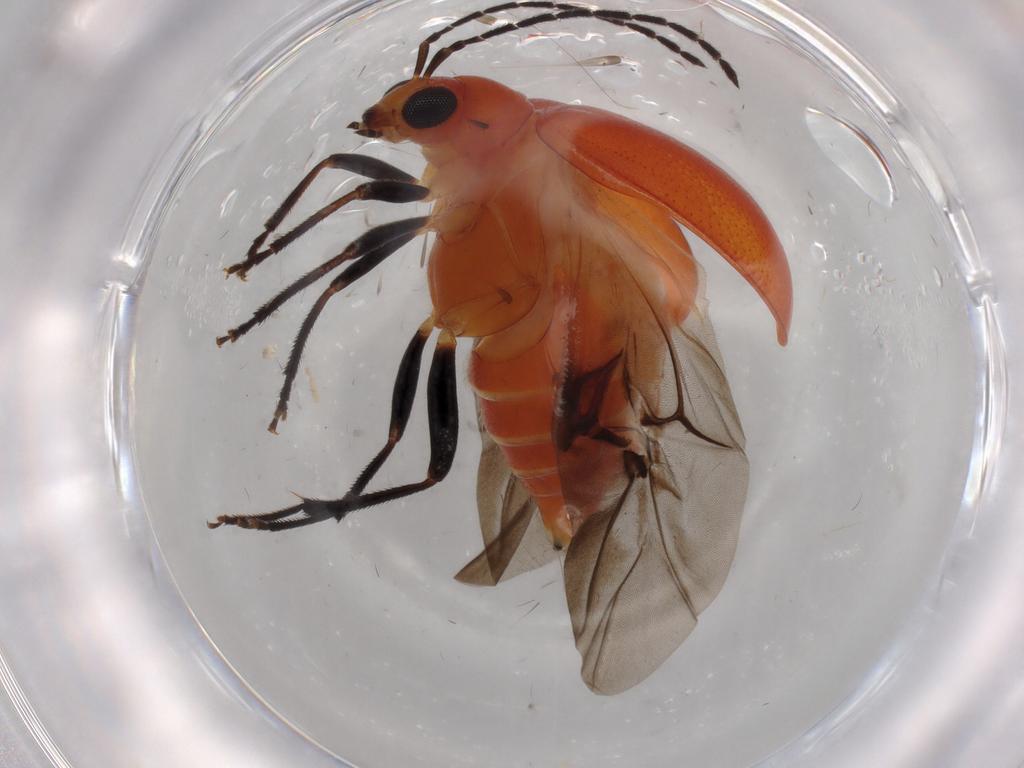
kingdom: Animalia
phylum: Arthropoda
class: Insecta
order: Coleoptera
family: Chrysomelidae
